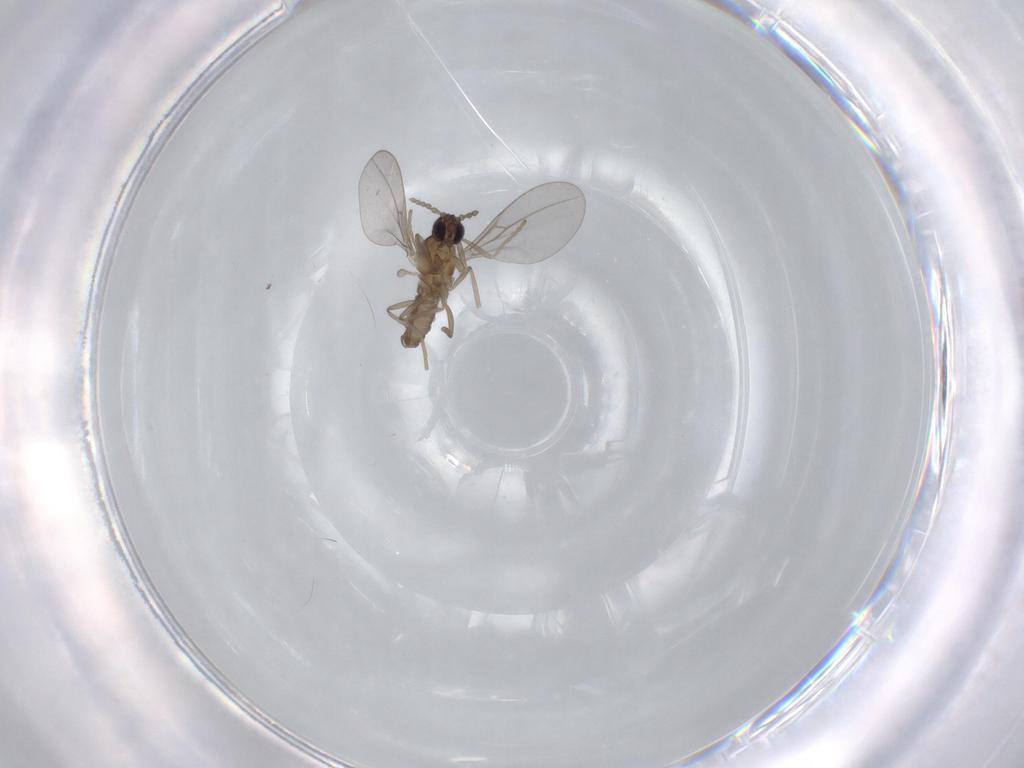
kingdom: Animalia
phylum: Arthropoda
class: Insecta
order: Diptera
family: Cecidomyiidae
